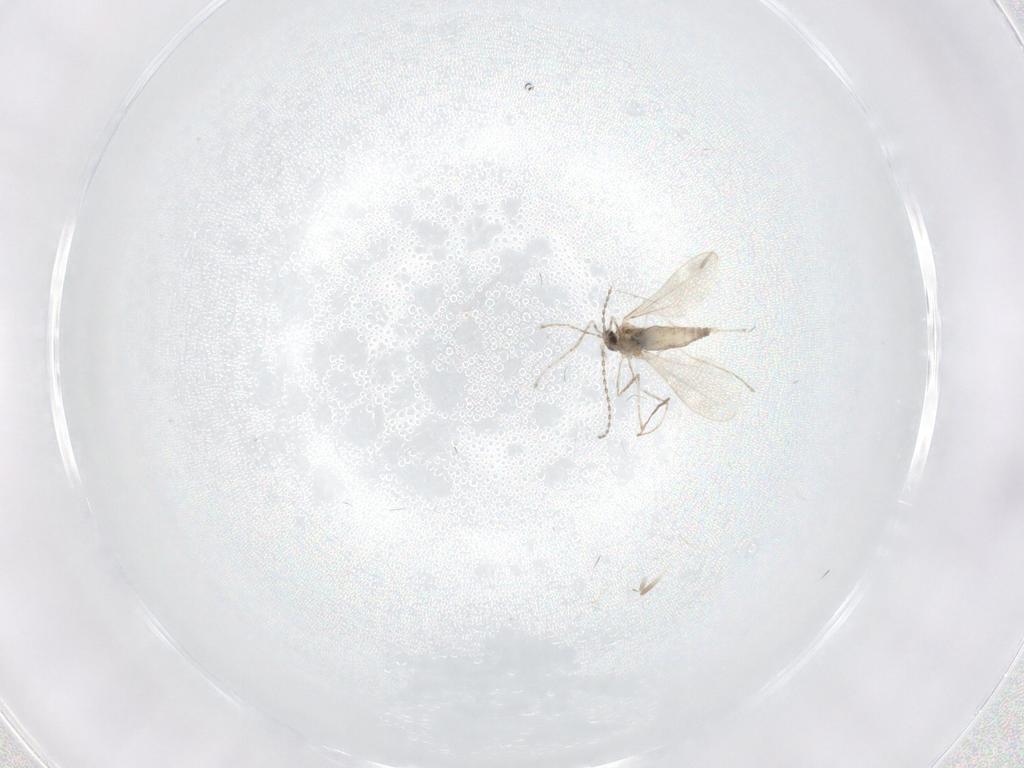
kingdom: Animalia
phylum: Arthropoda
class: Insecta
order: Diptera
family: Chironomidae
